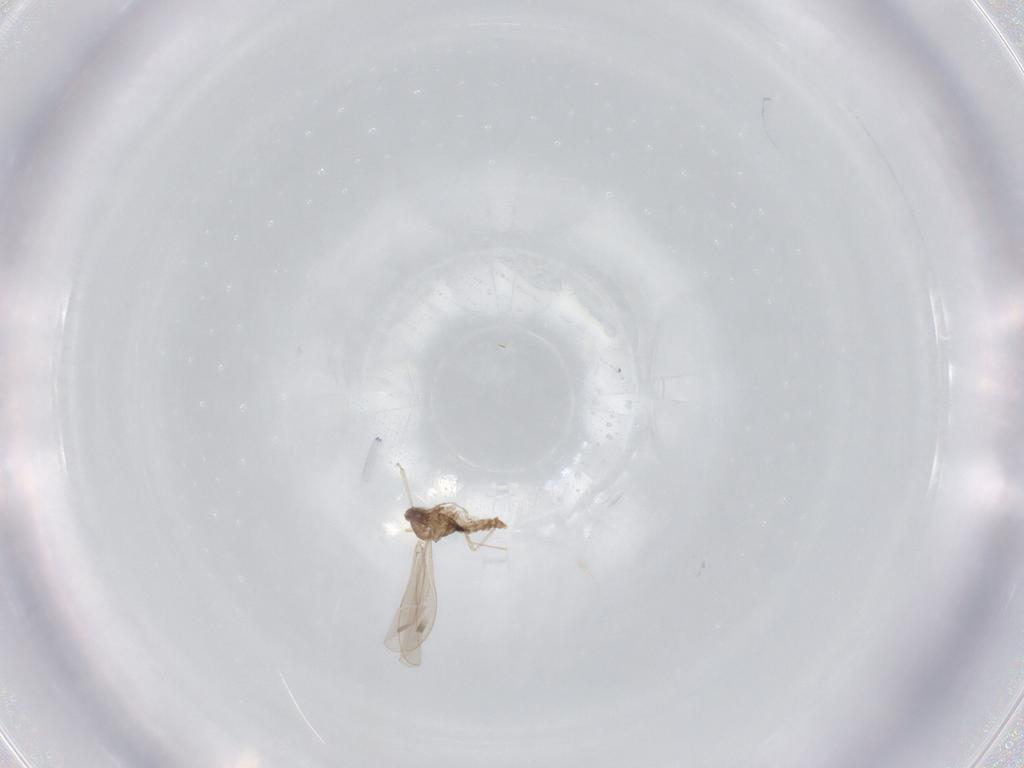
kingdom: Animalia
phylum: Arthropoda
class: Insecta
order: Diptera
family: Cecidomyiidae
